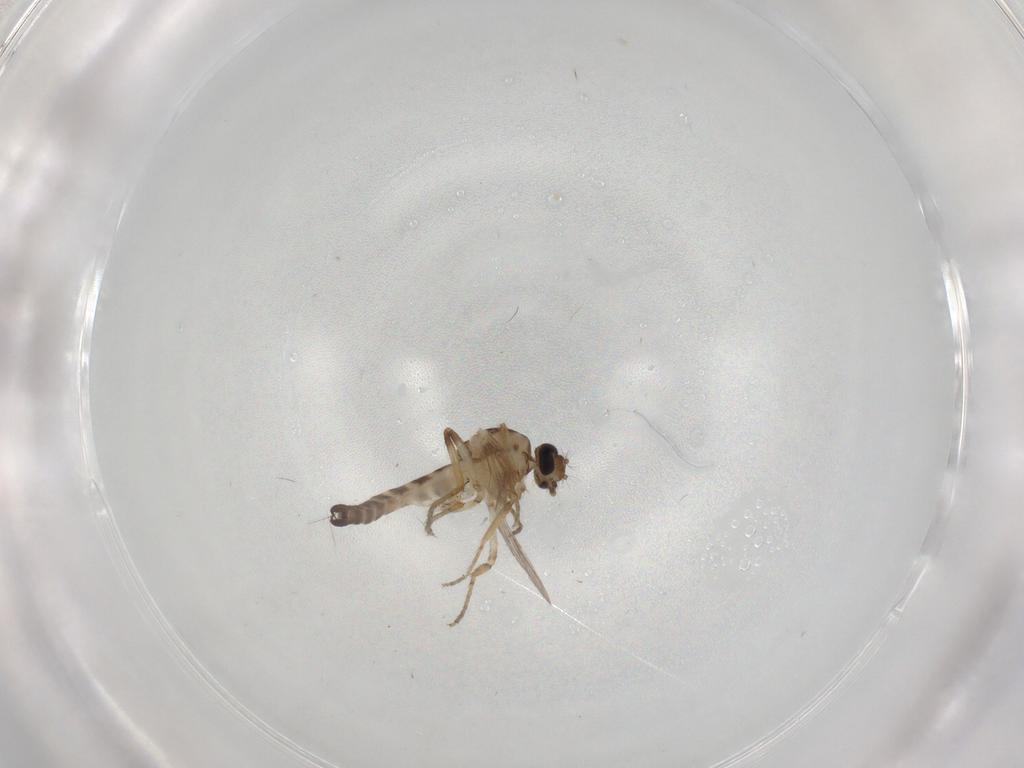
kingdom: Animalia
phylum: Arthropoda
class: Insecta
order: Diptera
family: Ceratopogonidae
